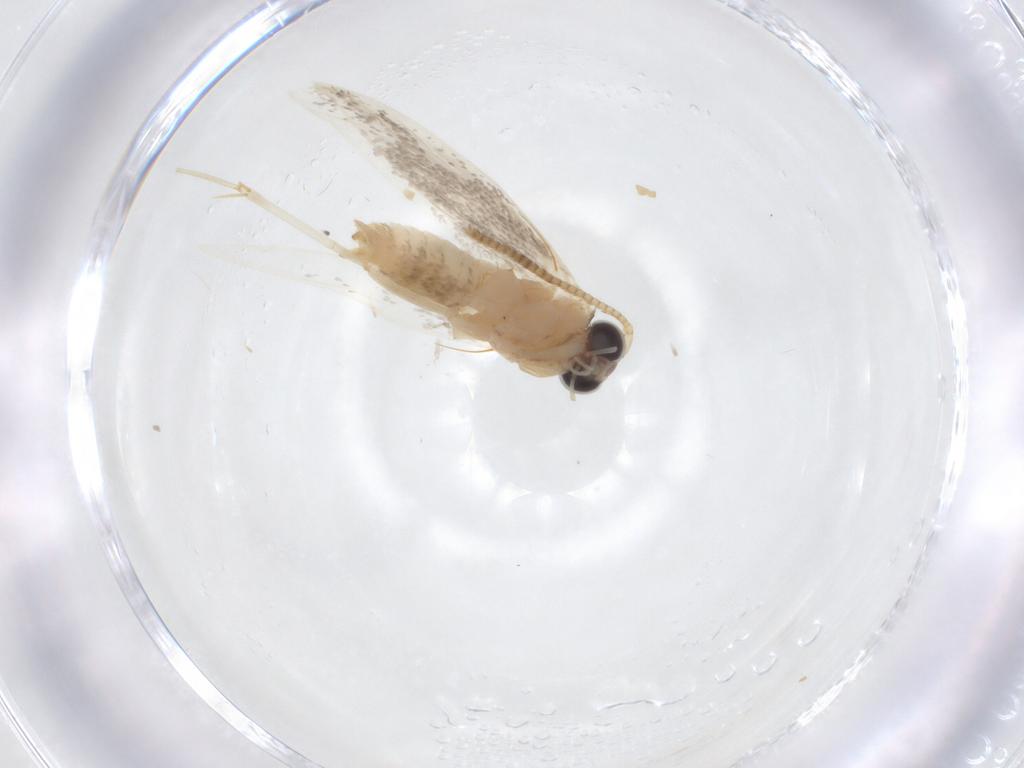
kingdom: Animalia
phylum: Arthropoda
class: Insecta
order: Lepidoptera
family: Tineidae
